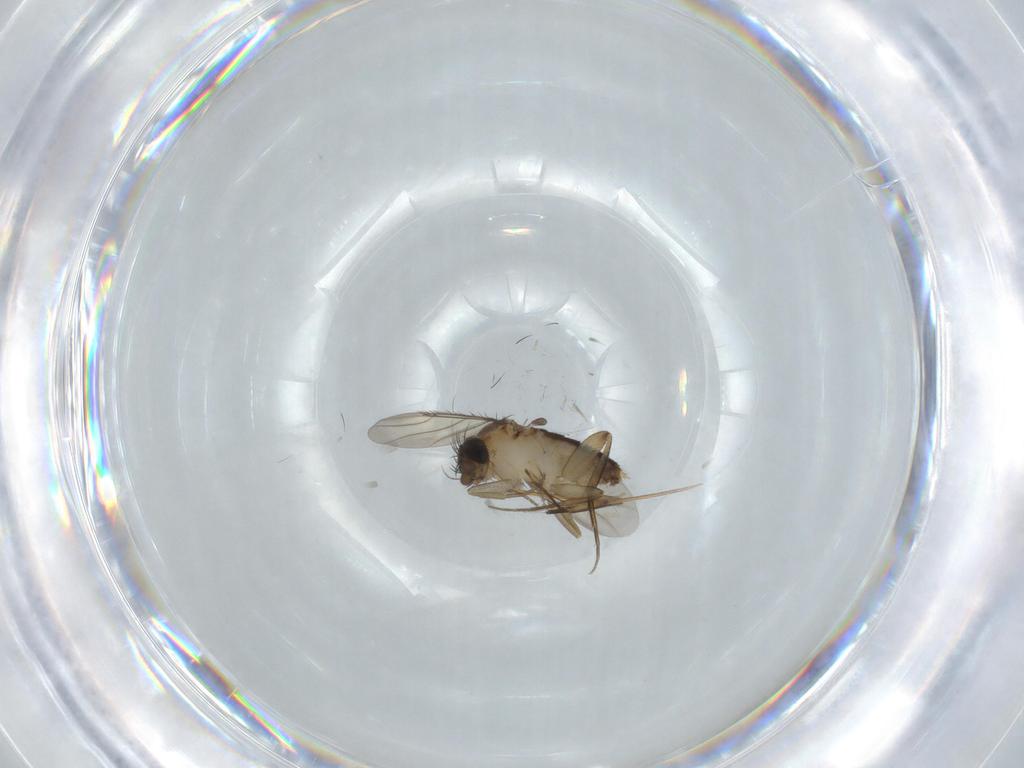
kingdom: Animalia
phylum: Arthropoda
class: Insecta
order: Diptera
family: Phoridae
